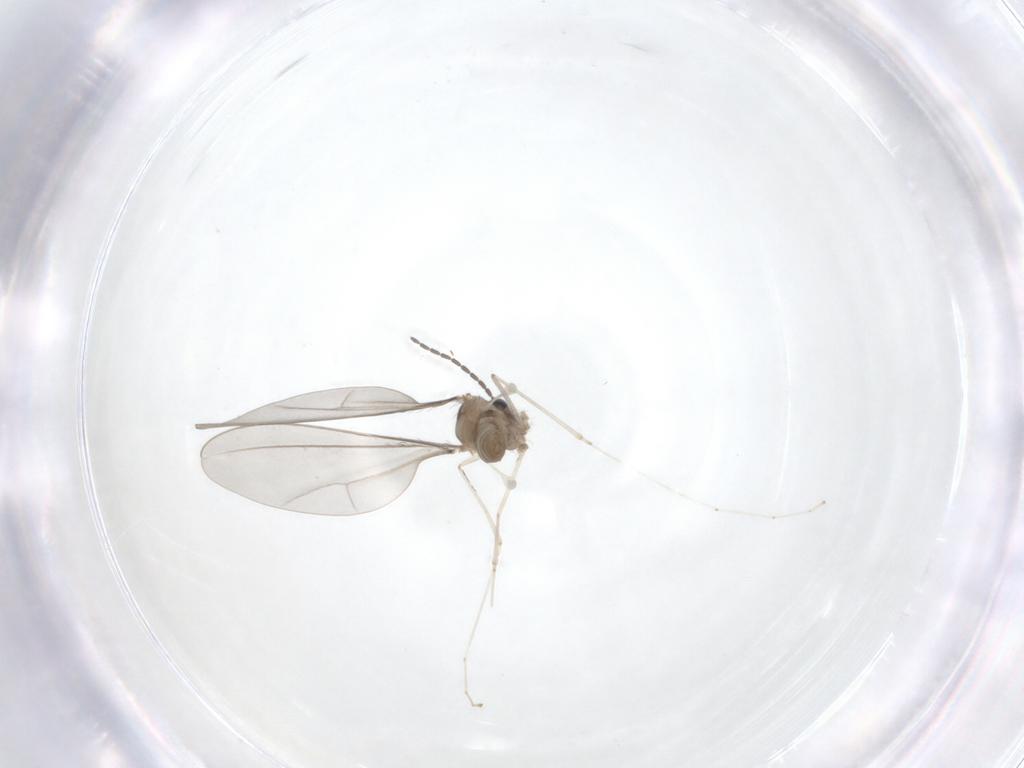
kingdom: Animalia
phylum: Arthropoda
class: Insecta
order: Diptera
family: Cecidomyiidae
